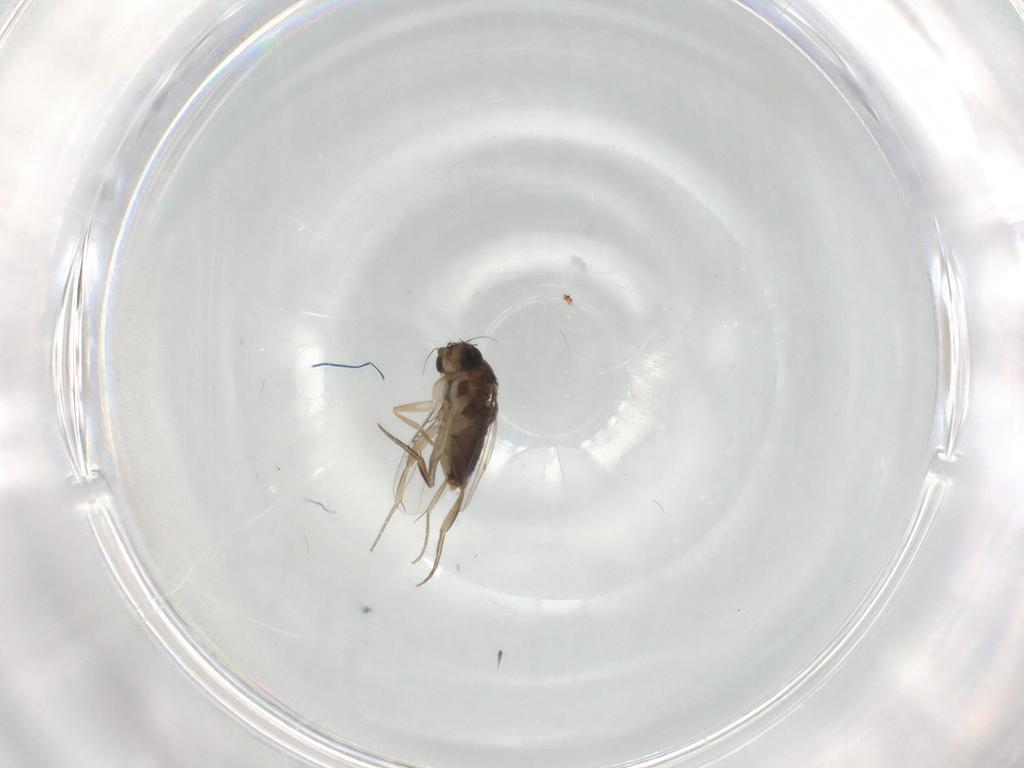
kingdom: Animalia
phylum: Arthropoda
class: Insecta
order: Diptera
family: Phoridae
